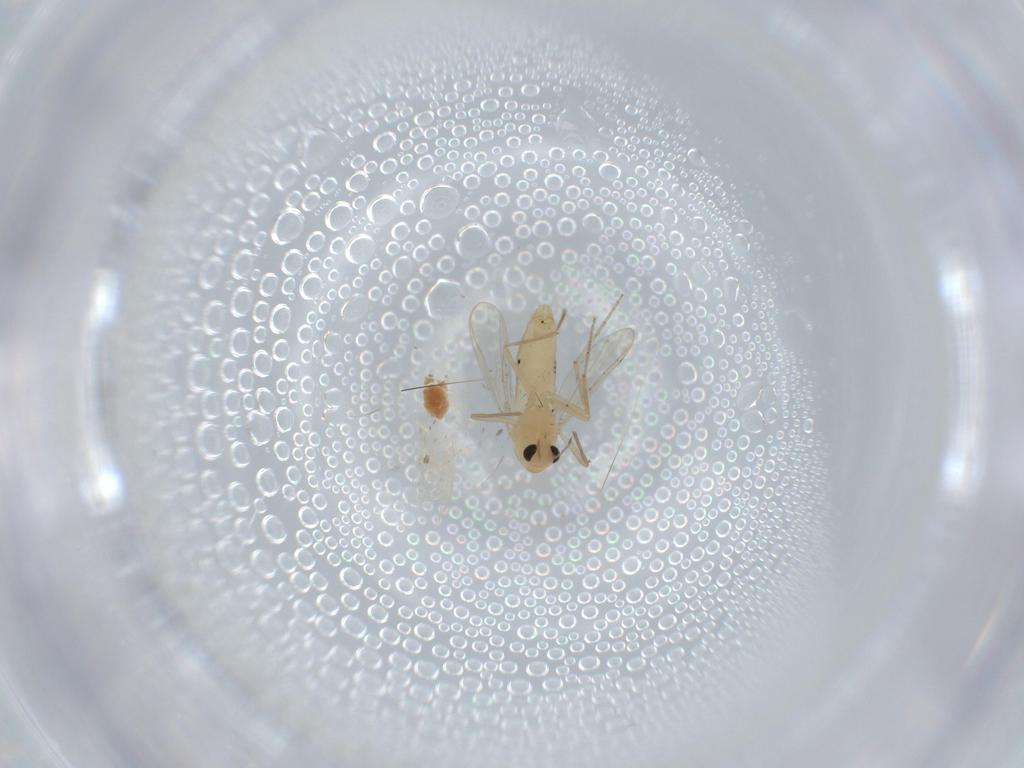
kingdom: Animalia
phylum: Arthropoda
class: Insecta
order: Diptera
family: Chironomidae
